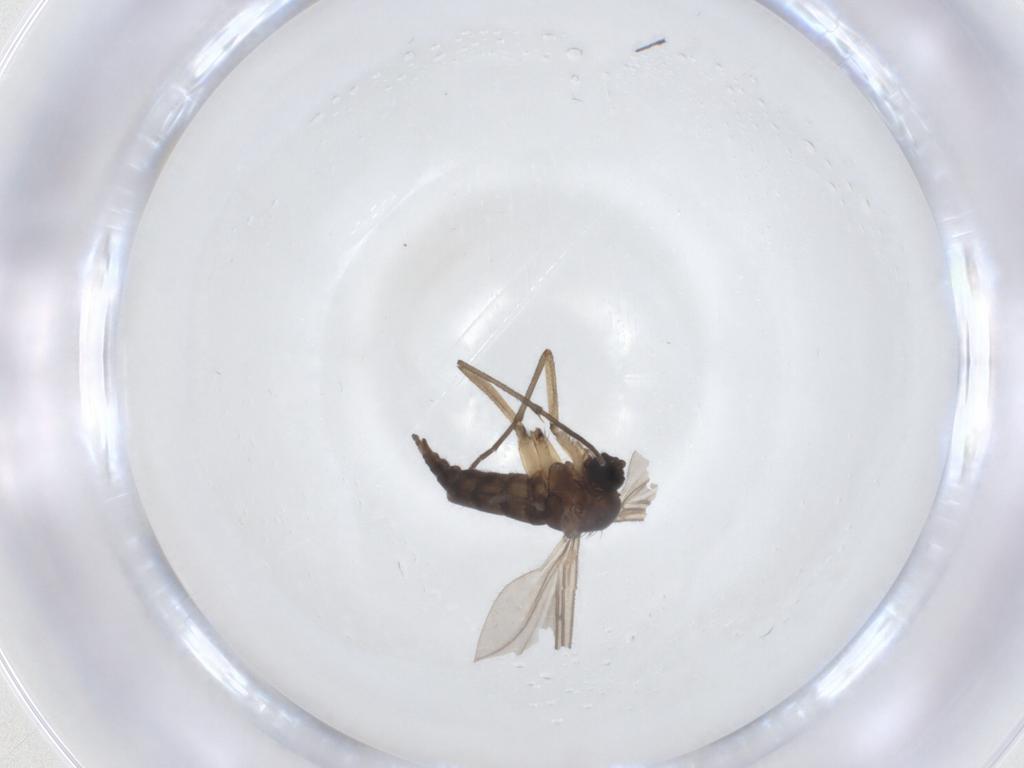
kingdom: Animalia
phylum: Arthropoda
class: Insecta
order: Diptera
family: Sciaridae
